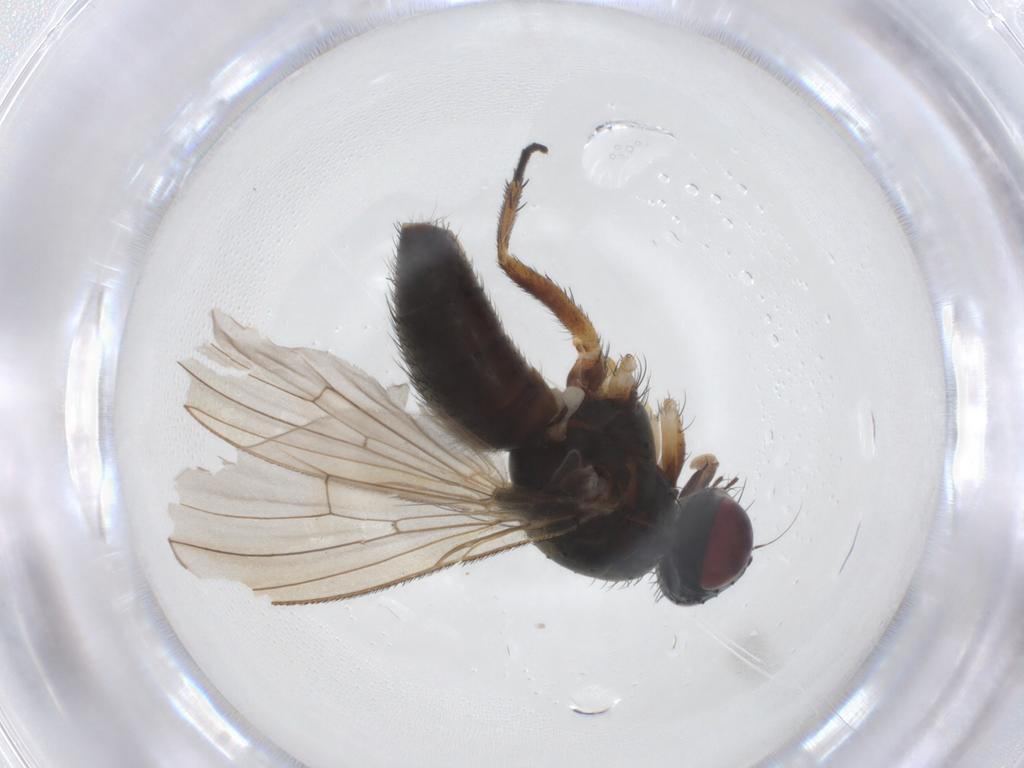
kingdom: Animalia
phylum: Arthropoda
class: Insecta
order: Diptera
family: Muscidae
